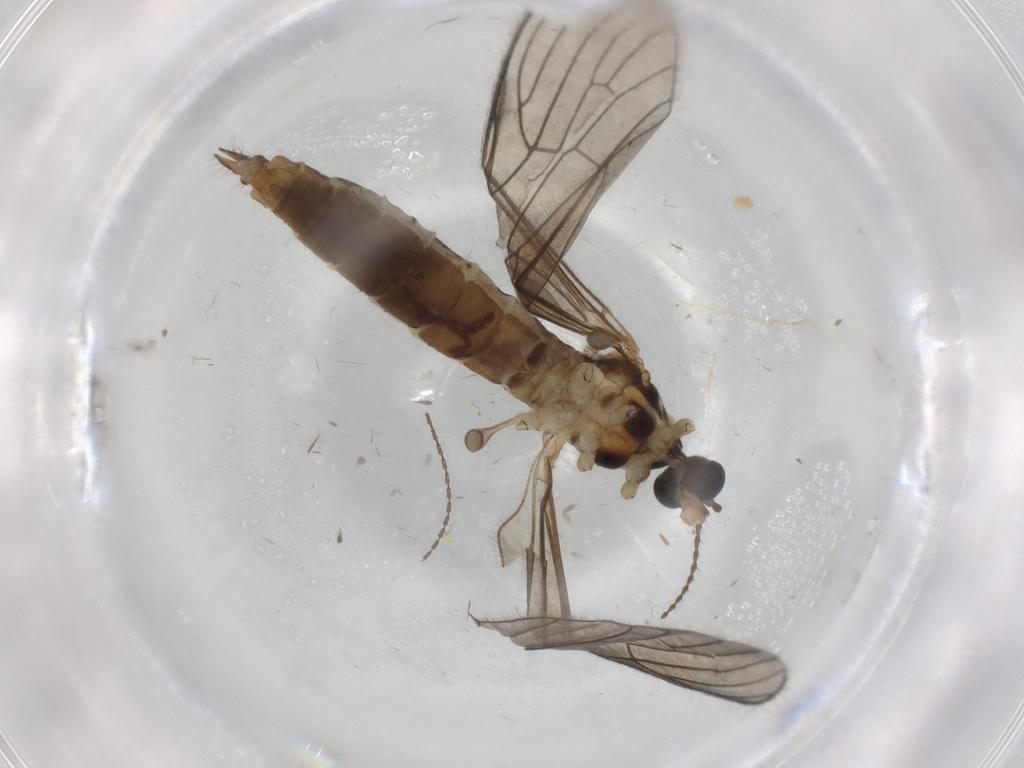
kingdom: Animalia
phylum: Arthropoda
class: Insecta
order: Diptera
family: Limoniidae
